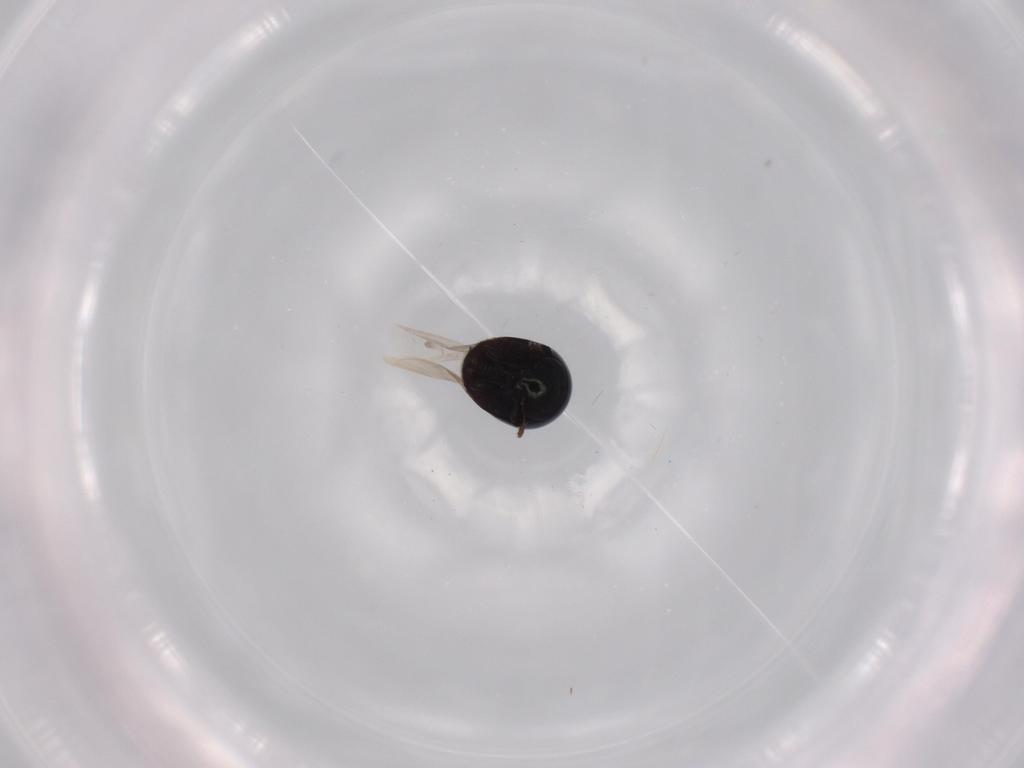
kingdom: Animalia
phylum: Arthropoda
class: Insecta
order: Coleoptera
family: Cybocephalidae
